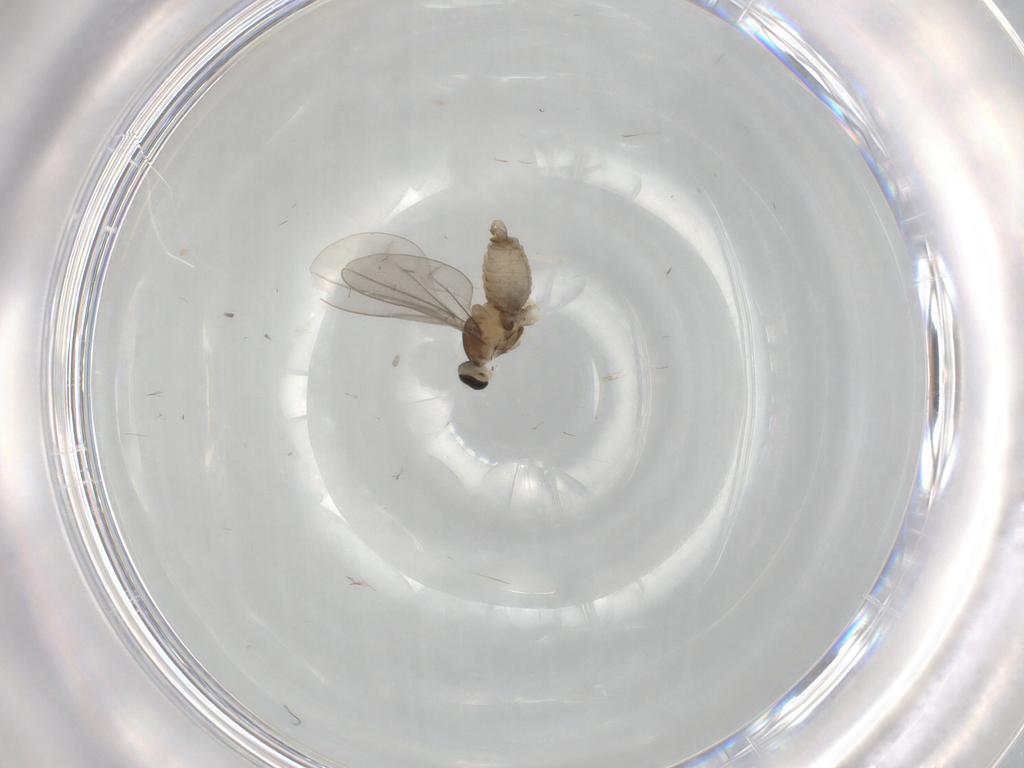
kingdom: Animalia
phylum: Arthropoda
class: Insecta
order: Diptera
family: Cecidomyiidae
